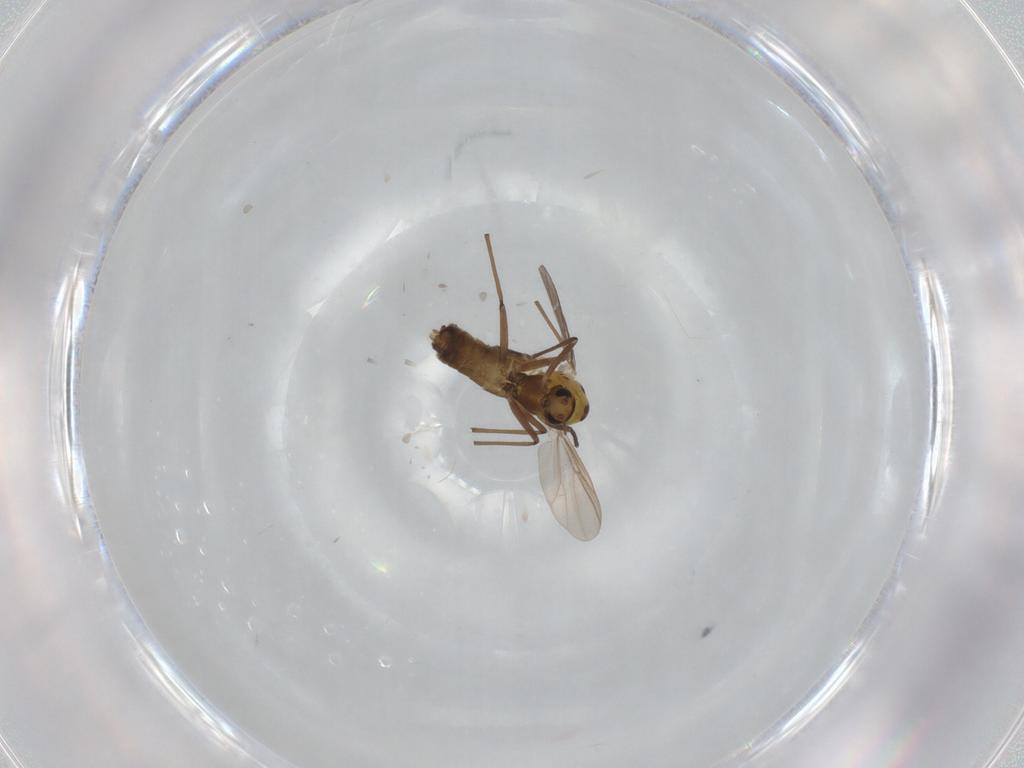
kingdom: Animalia
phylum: Arthropoda
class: Insecta
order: Diptera
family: Chironomidae
